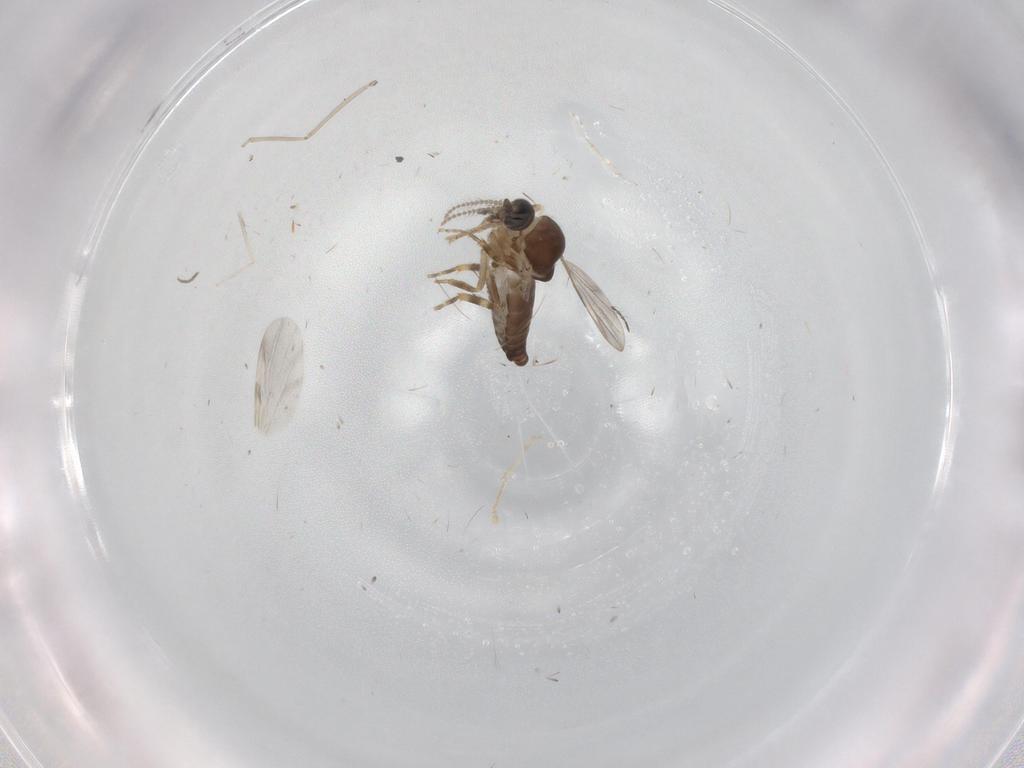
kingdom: Animalia
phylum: Arthropoda
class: Insecta
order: Diptera
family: Ceratopogonidae
